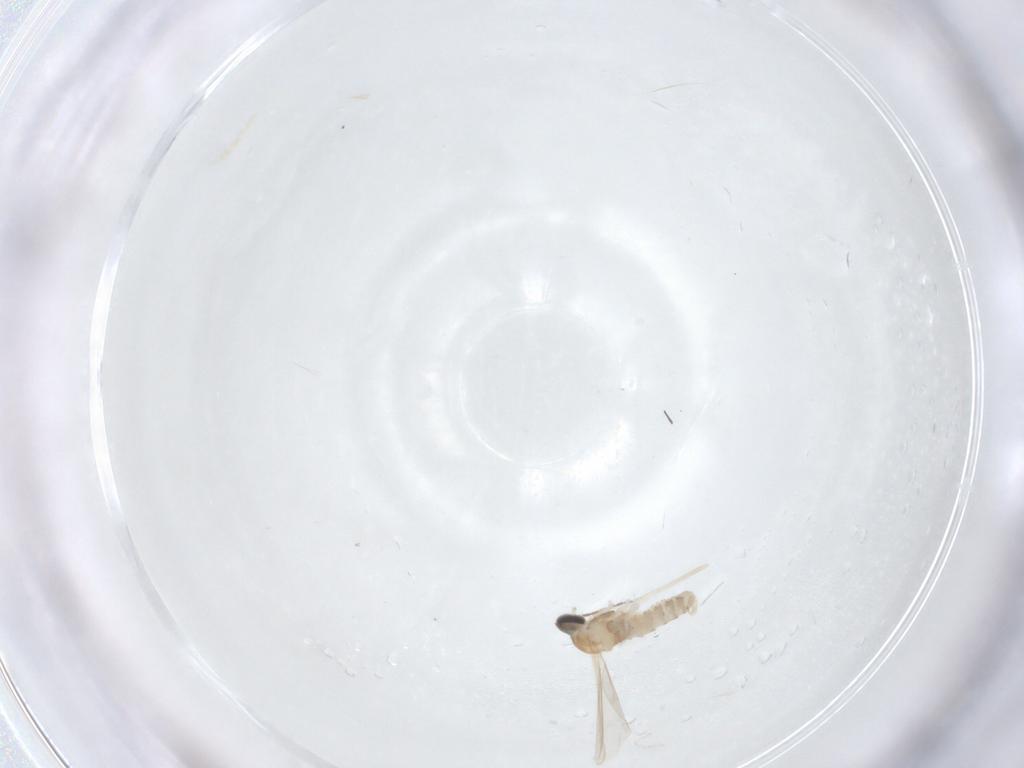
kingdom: Animalia
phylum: Arthropoda
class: Insecta
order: Diptera
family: Cecidomyiidae
